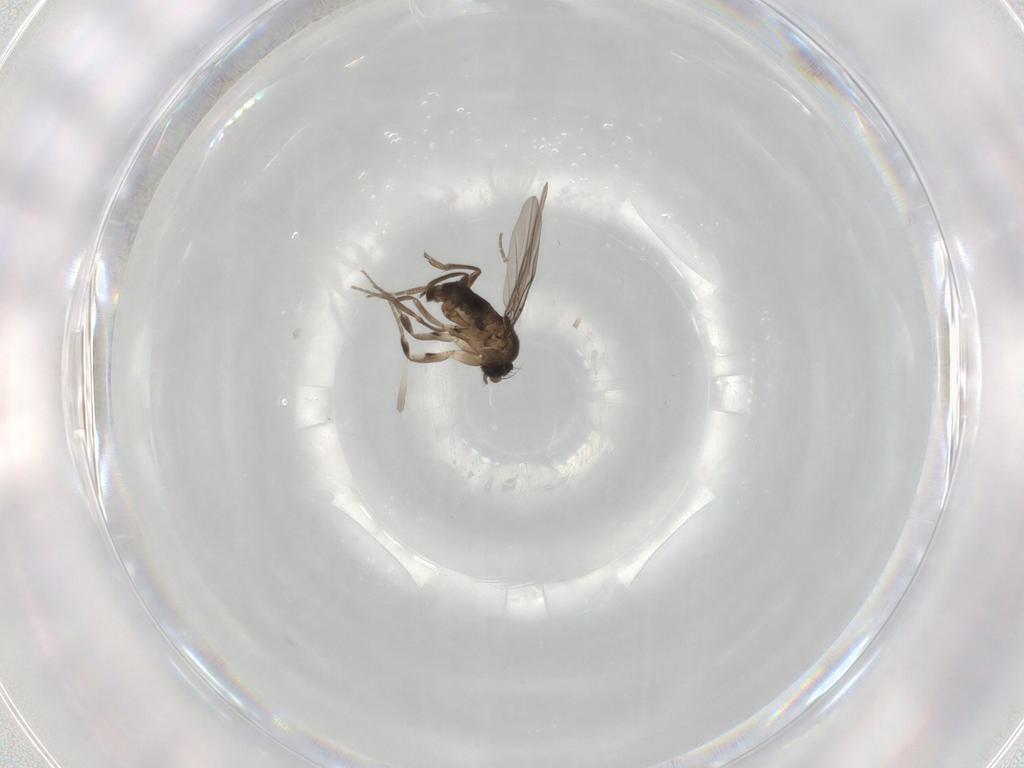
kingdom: Animalia
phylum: Arthropoda
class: Insecta
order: Diptera
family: Phoridae
